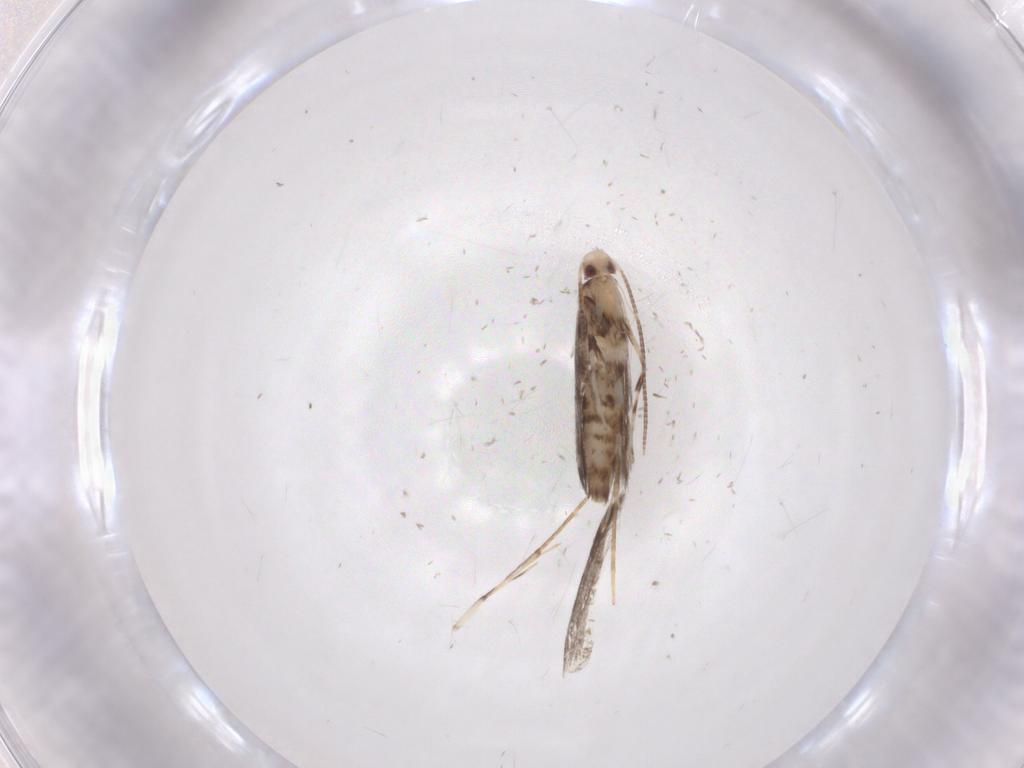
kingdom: Animalia
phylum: Arthropoda
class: Insecta
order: Lepidoptera
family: Gracillariidae
